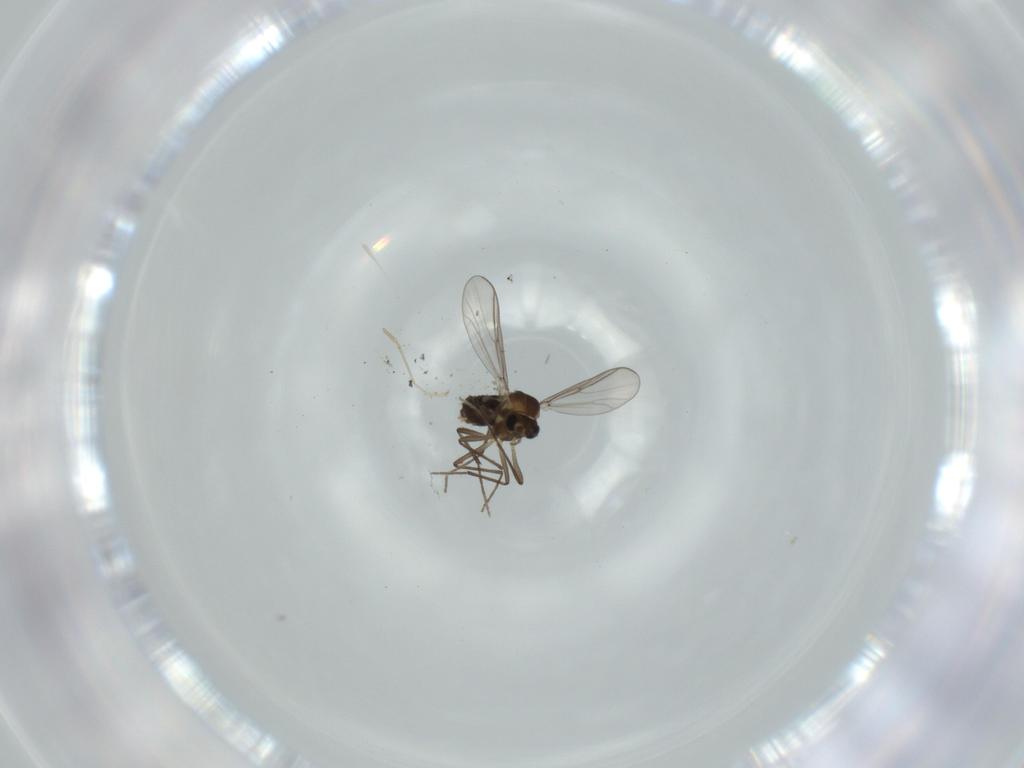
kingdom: Animalia
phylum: Arthropoda
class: Insecta
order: Diptera
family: Cecidomyiidae
